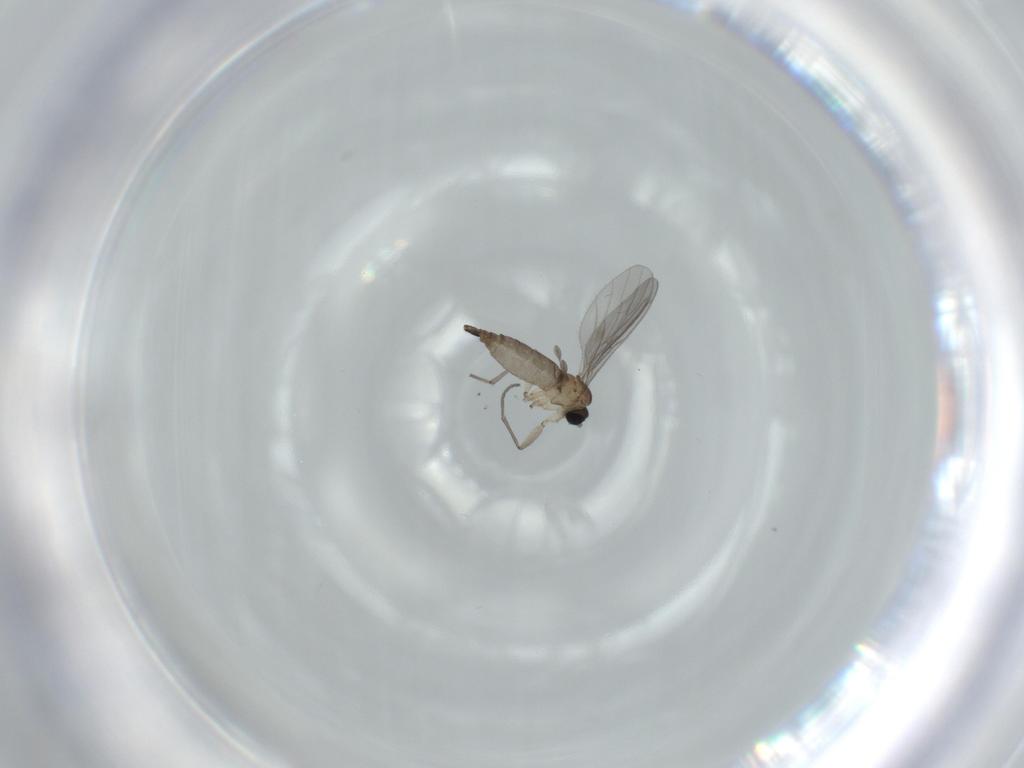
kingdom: Animalia
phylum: Arthropoda
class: Insecta
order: Diptera
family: Sciaridae
